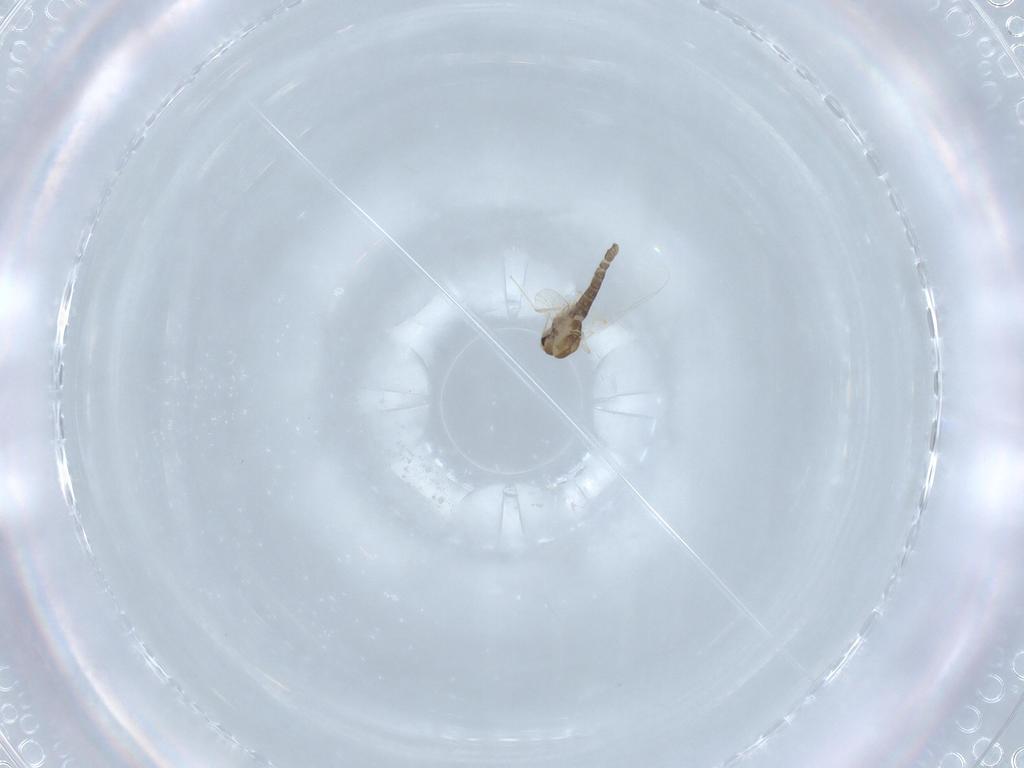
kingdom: Animalia
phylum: Arthropoda
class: Insecta
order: Diptera
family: Chironomidae
